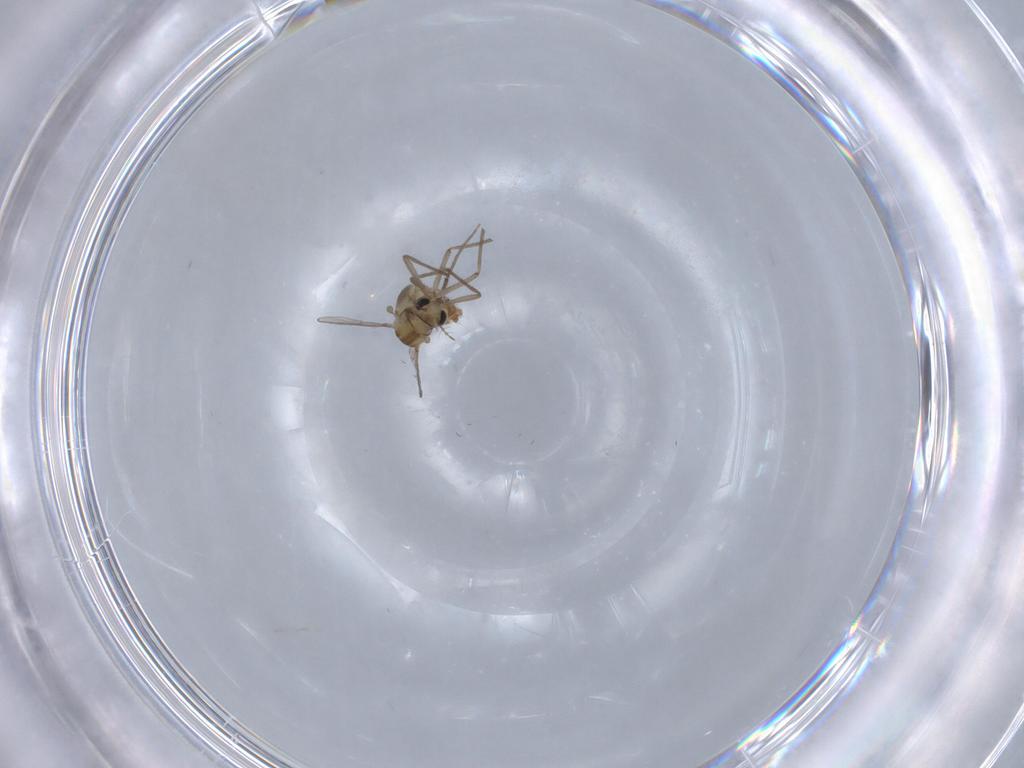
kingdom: Animalia
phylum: Arthropoda
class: Insecta
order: Diptera
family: Chironomidae
